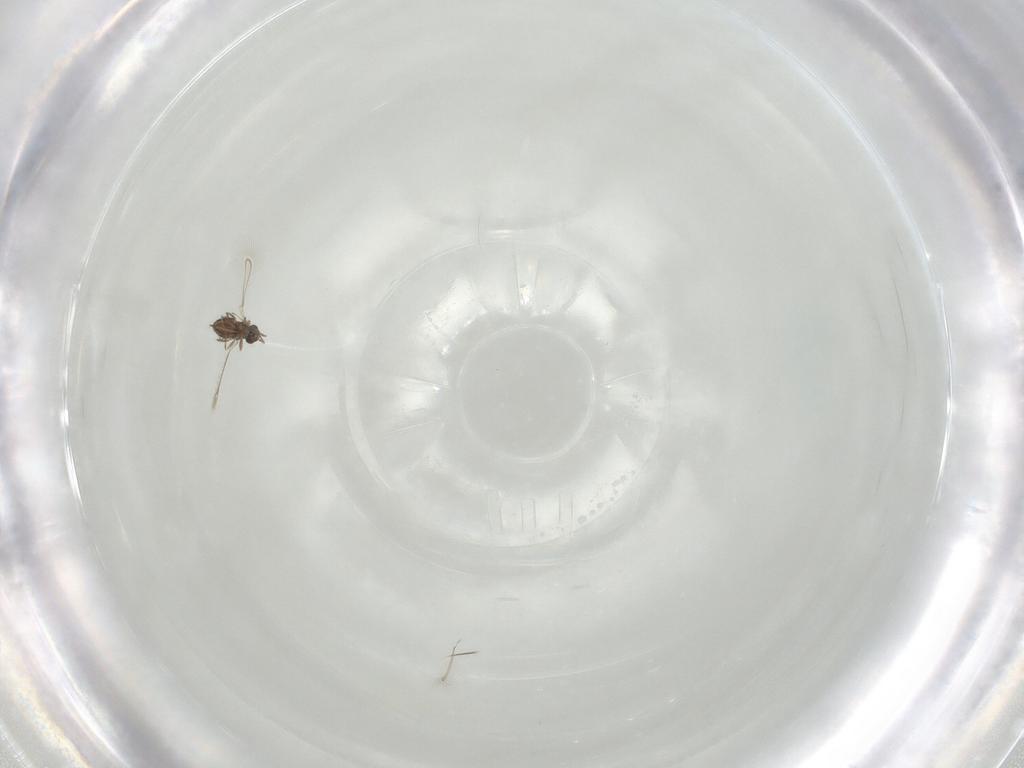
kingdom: Animalia
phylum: Arthropoda
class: Insecta
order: Hymenoptera
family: Mymaridae
